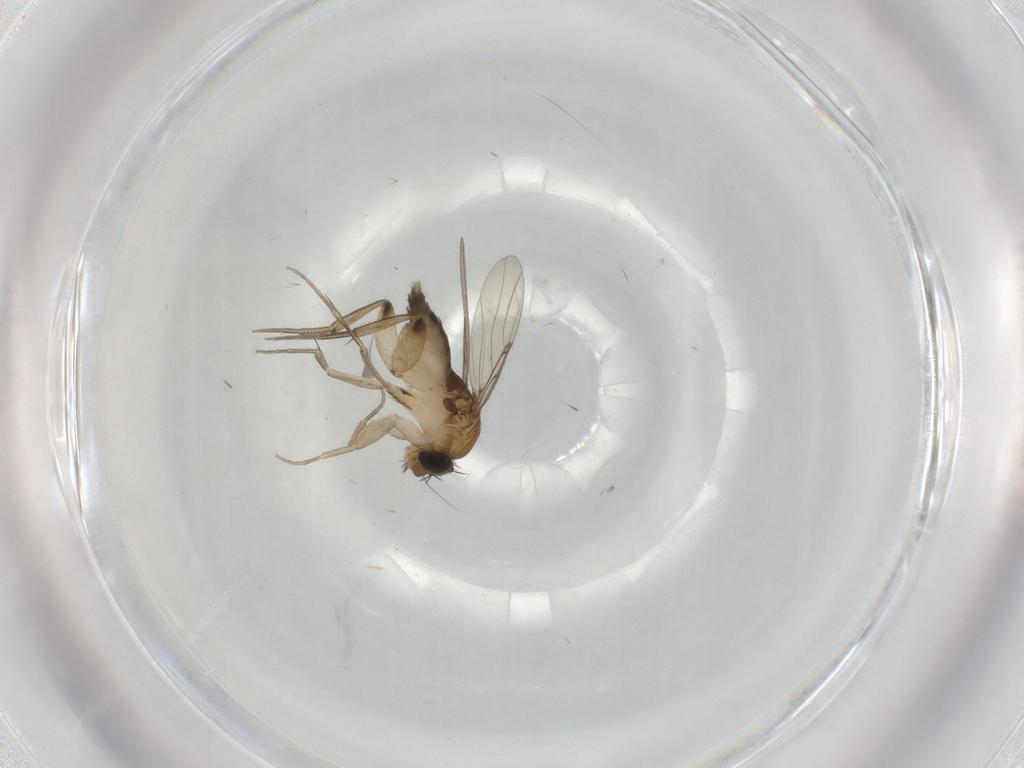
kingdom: Animalia
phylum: Arthropoda
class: Insecta
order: Diptera
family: Phoridae
